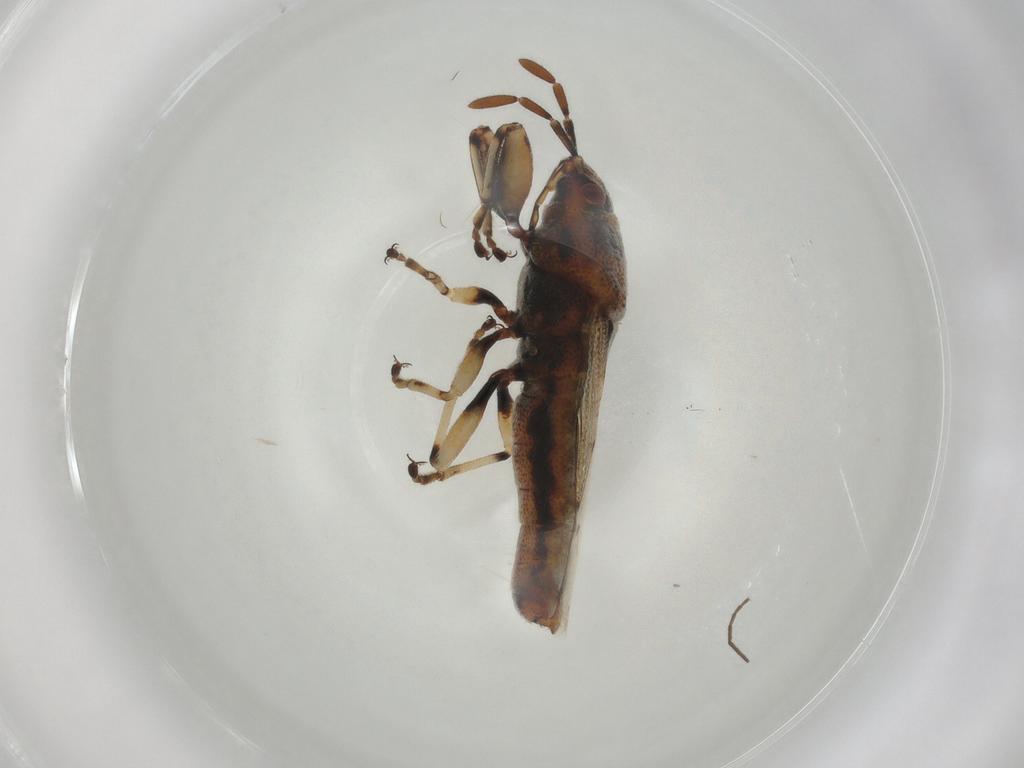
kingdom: Animalia
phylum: Arthropoda
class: Insecta
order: Hemiptera
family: Pachygronthidae
